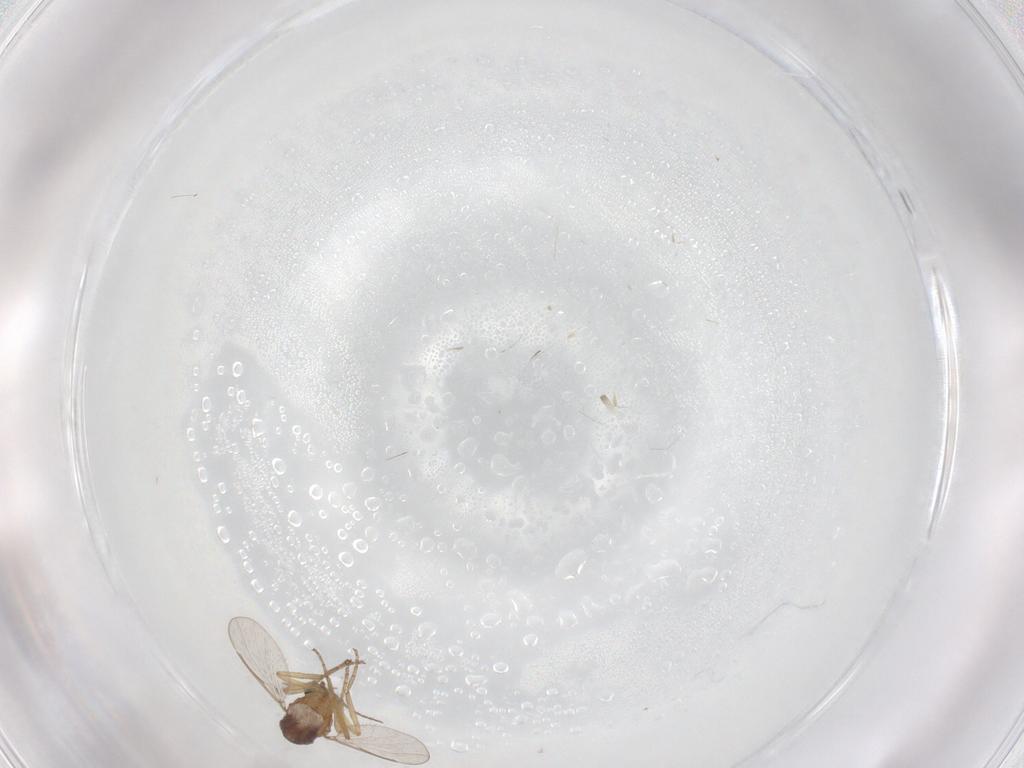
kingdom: Animalia
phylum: Arthropoda
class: Insecta
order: Diptera
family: Ceratopogonidae
